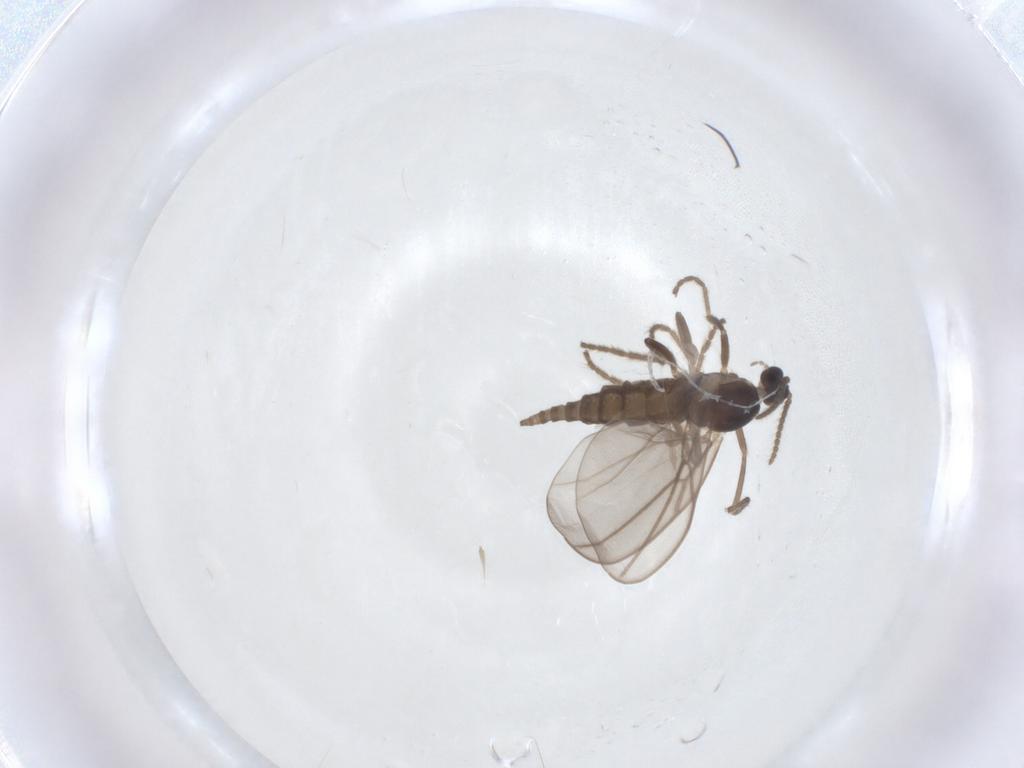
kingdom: Animalia
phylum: Arthropoda
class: Insecta
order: Diptera
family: Cecidomyiidae
